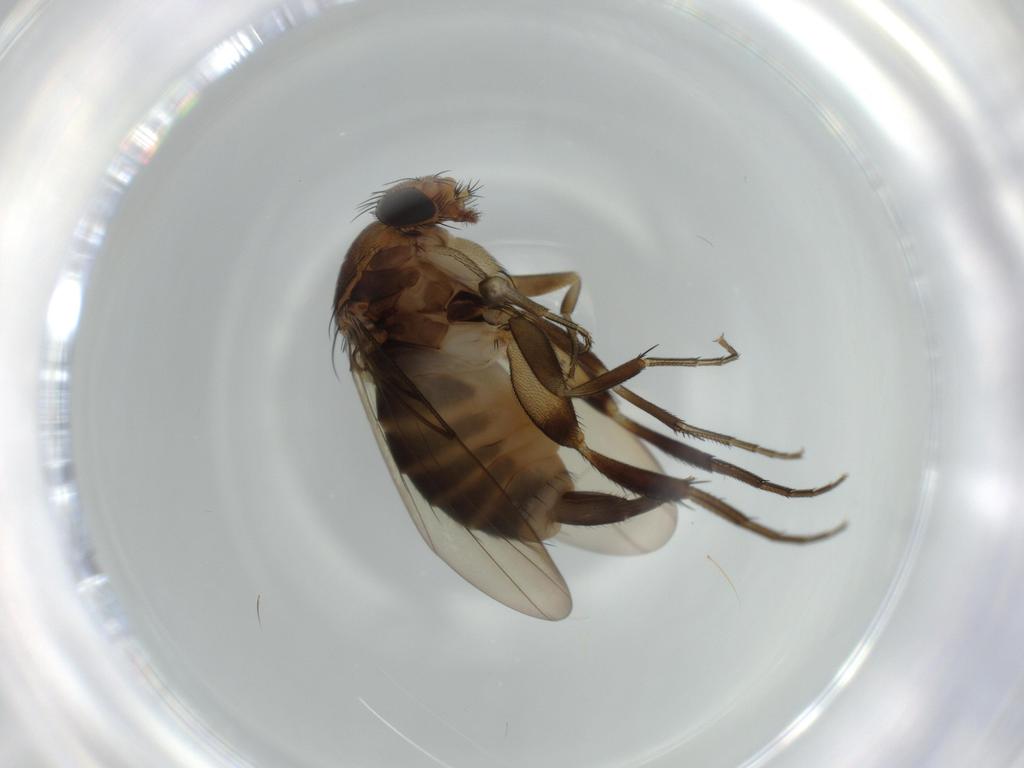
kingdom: Animalia
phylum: Arthropoda
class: Insecta
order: Diptera
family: Phoridae
